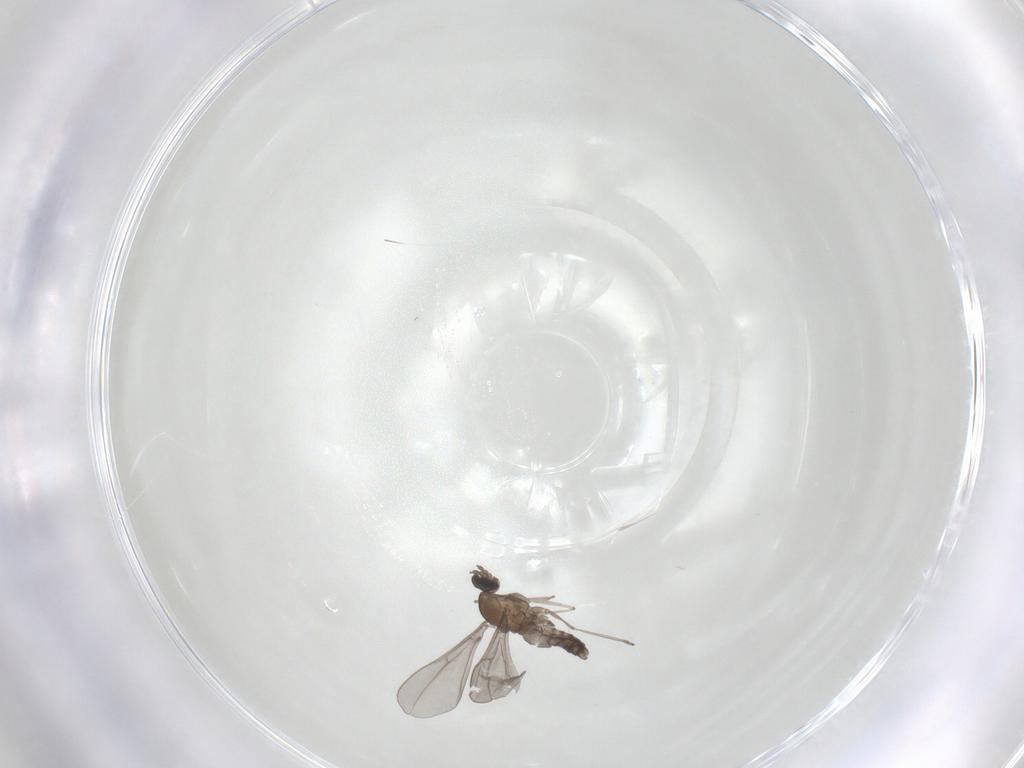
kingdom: Animalia
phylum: Arthropoda
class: Insecta
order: Diptera
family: Cecidomyiidae
